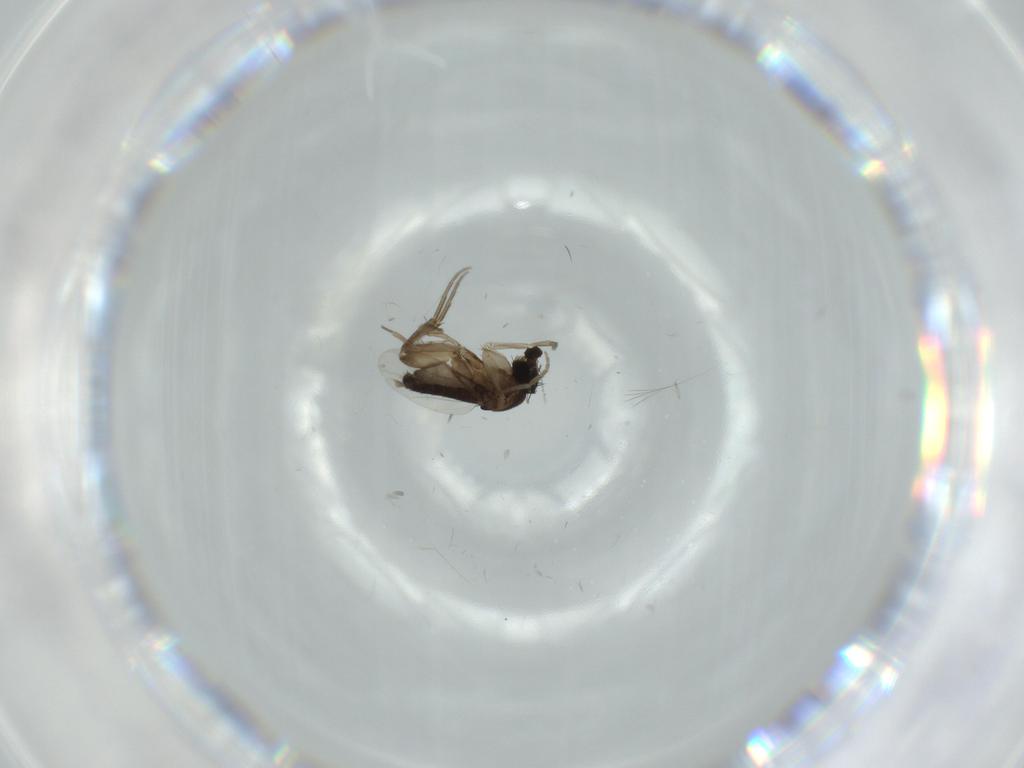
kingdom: Animalia
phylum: Arthropoda
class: Insecta
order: Diptera
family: Phoridae
